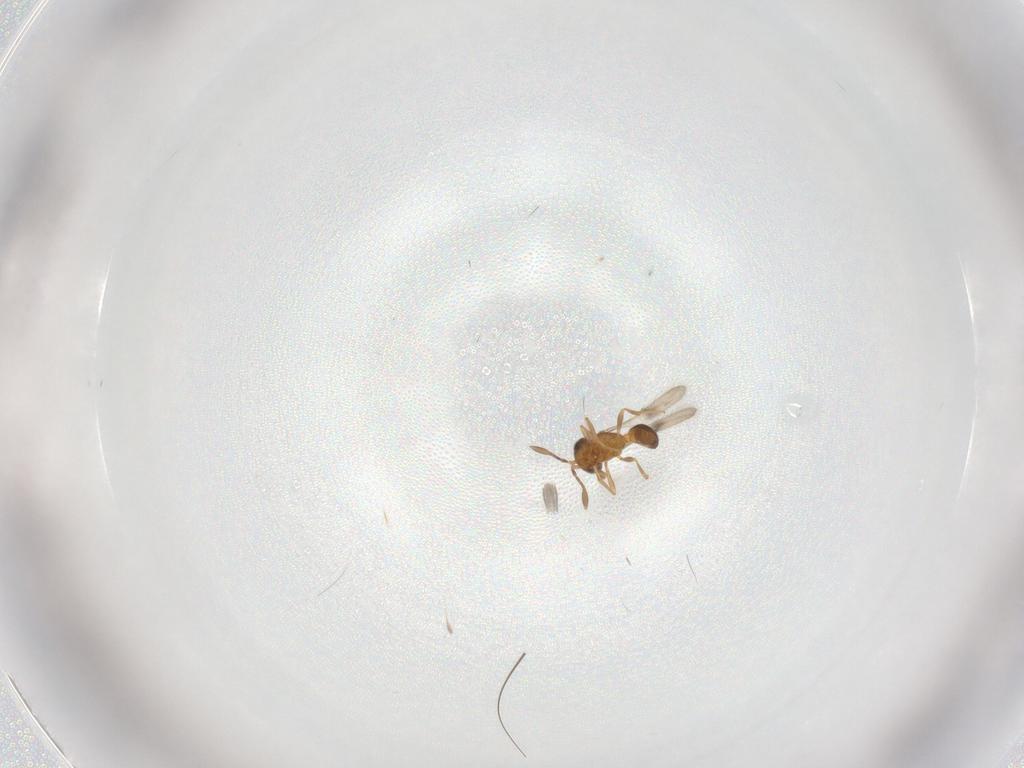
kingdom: Animalia
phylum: Arthropoda
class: Insecta
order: Hymenoptera
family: Scelionidae
